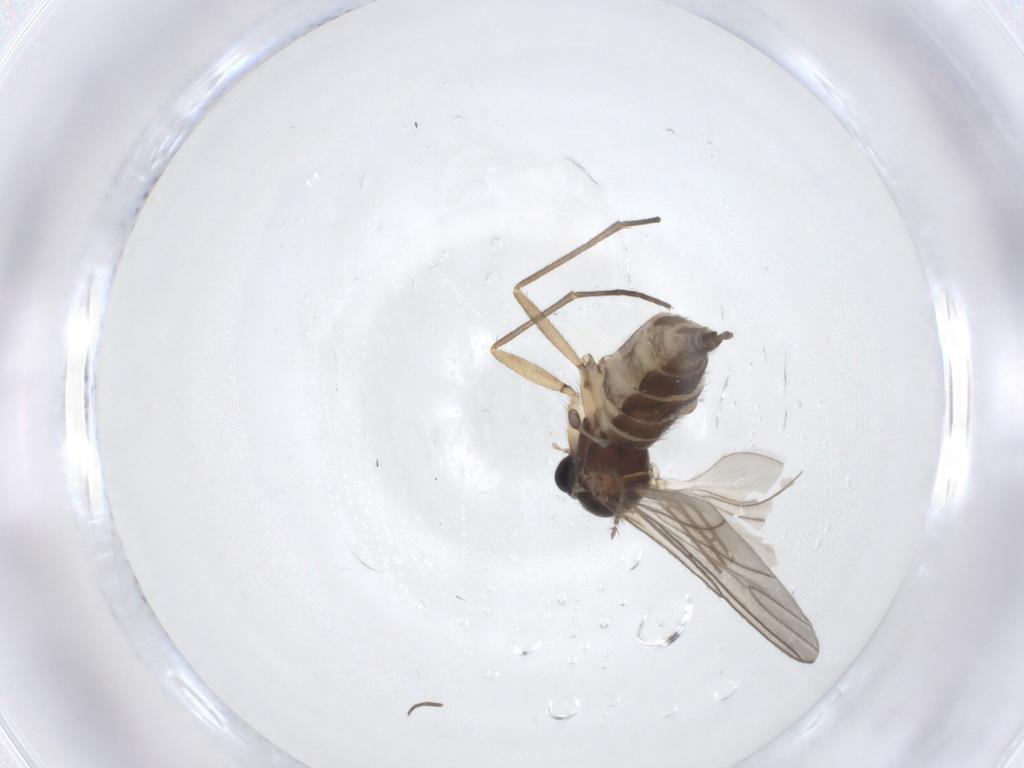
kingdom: Animalia
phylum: Arthropoda
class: Insecta
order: Diptera
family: Sciaridae
